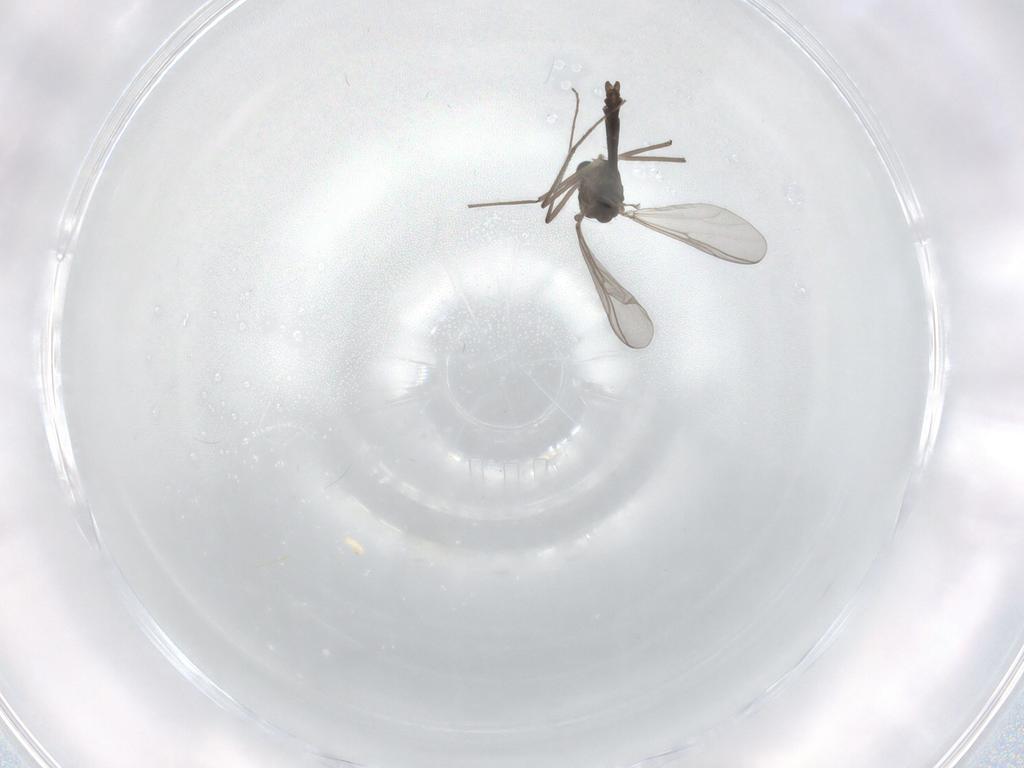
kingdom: Animalia
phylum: Arthropoda
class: Insecta
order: Diptera
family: Chironomidae
